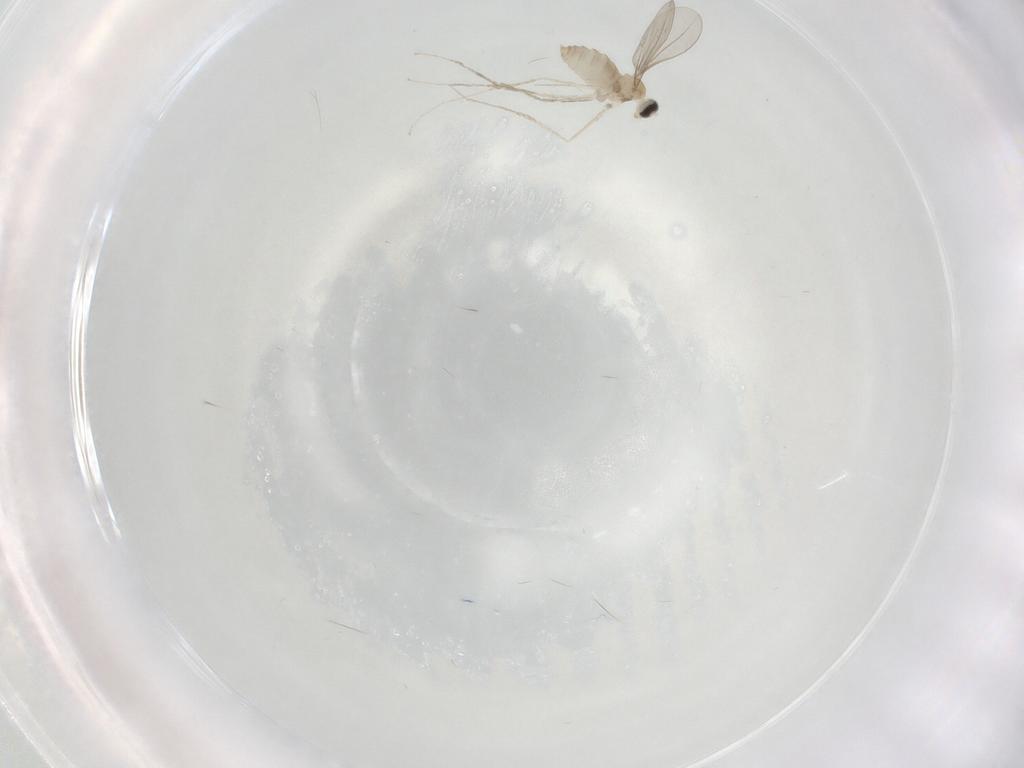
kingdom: Animalia
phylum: Arthropoda
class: Insecta
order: Diptera
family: Cecidomyiidae
